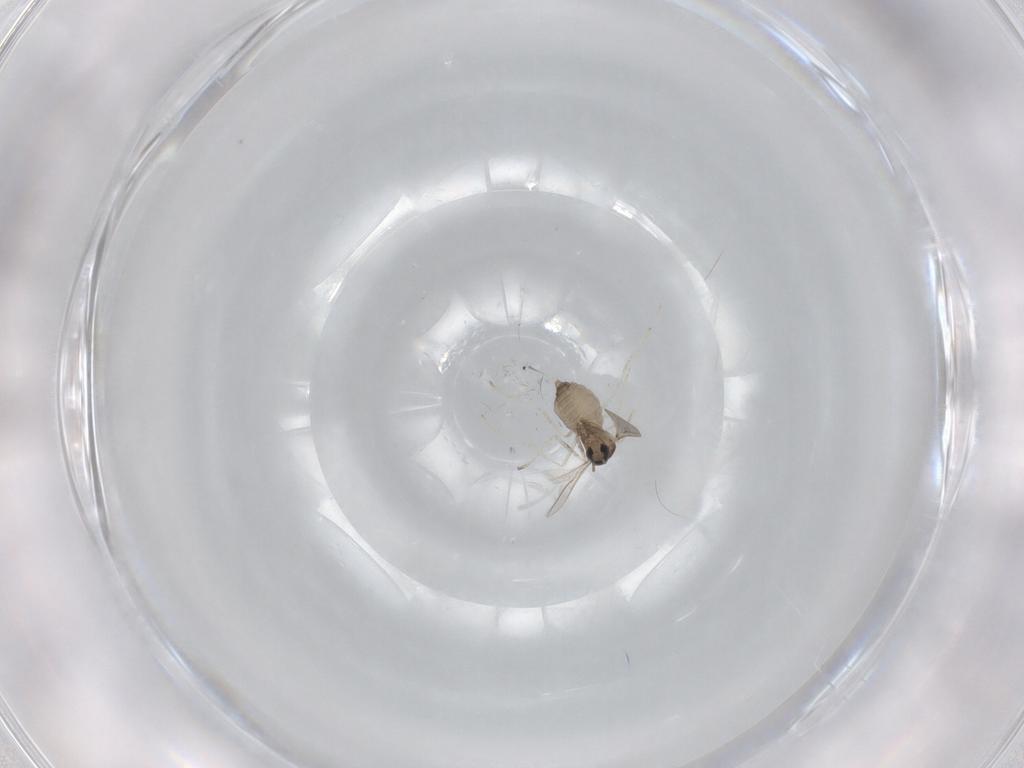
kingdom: Animalia
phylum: Arthropoda
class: Insecta
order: Diptera
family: Cecidomyiidae
